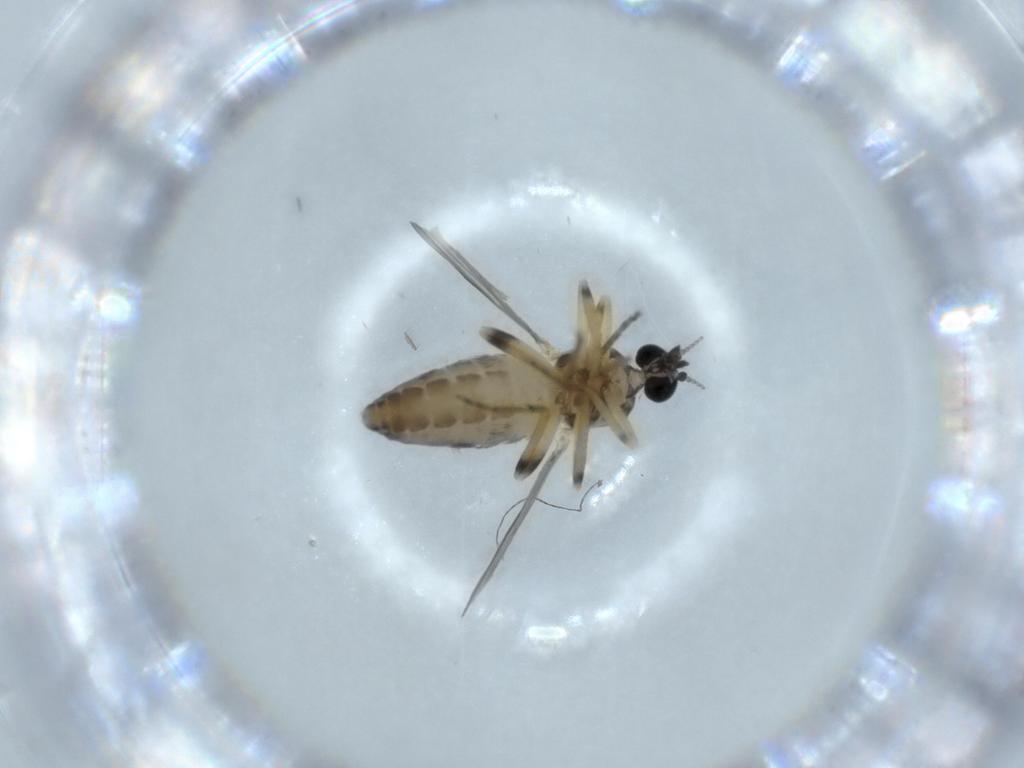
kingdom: Animalia
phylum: Arthropoda
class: Insecta
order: Diptera
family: Ceratopogonidae
